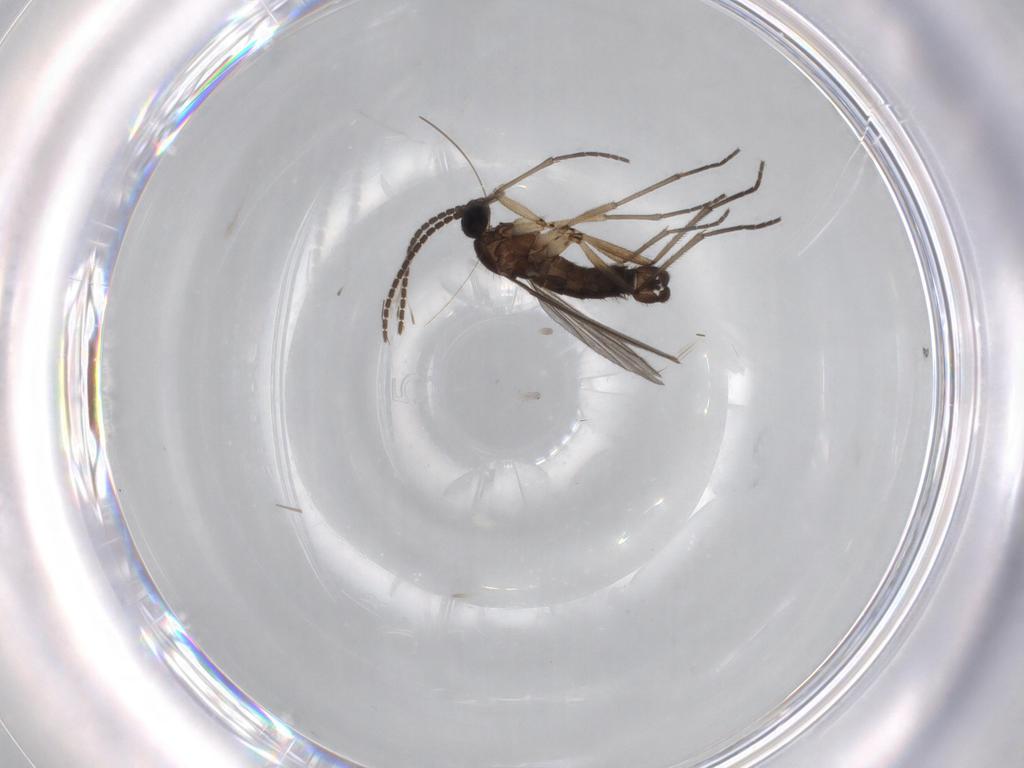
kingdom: Animalia
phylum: Arthropoda
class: Insecta
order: Diptera
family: Sciaridae
